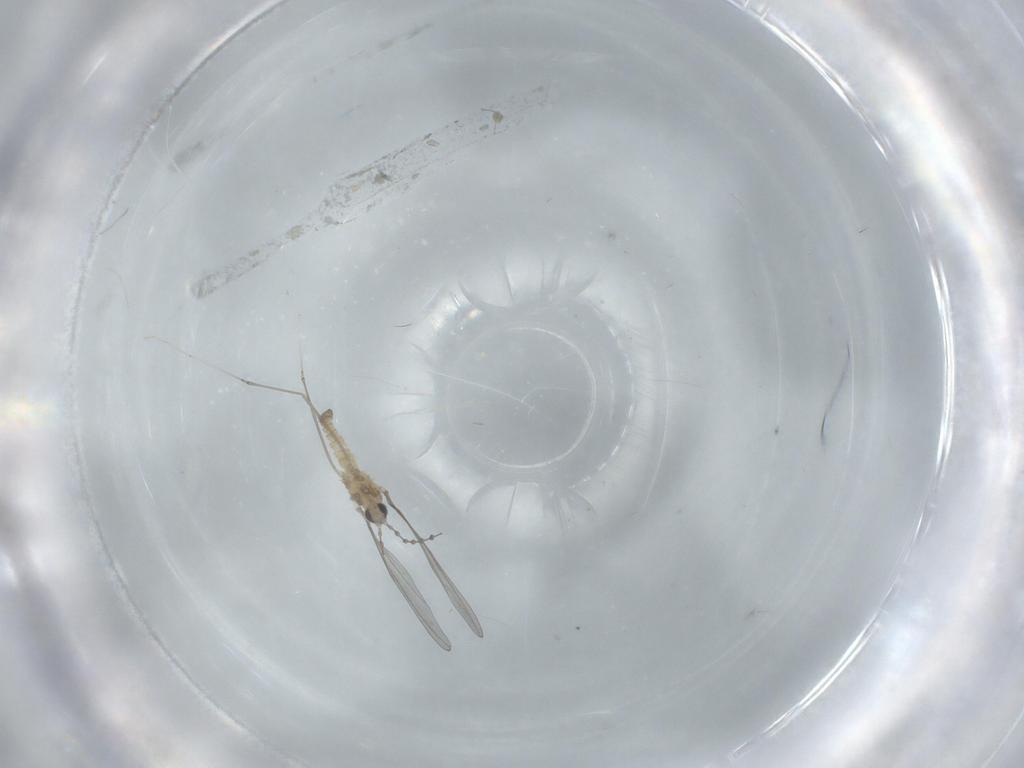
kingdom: Animalia
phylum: Arthropoda
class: Insecta
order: Diptera
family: Cecidomyiidae
